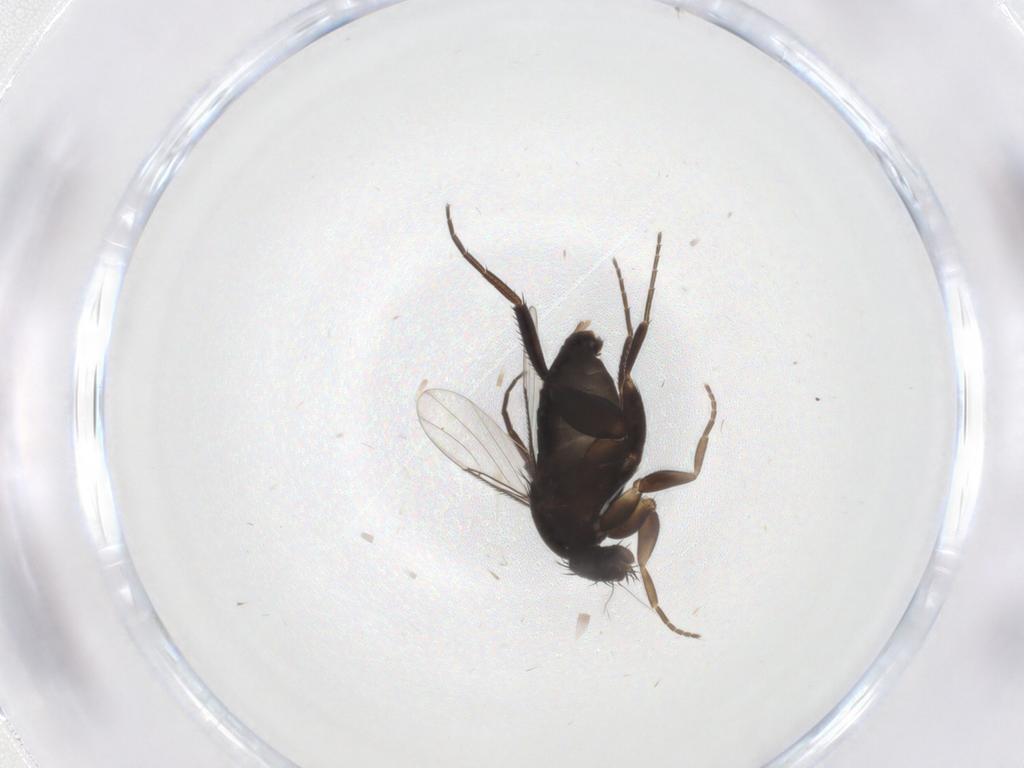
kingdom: Animalia
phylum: Arthropoda
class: Insecta
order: Diptera
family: Phoridae
